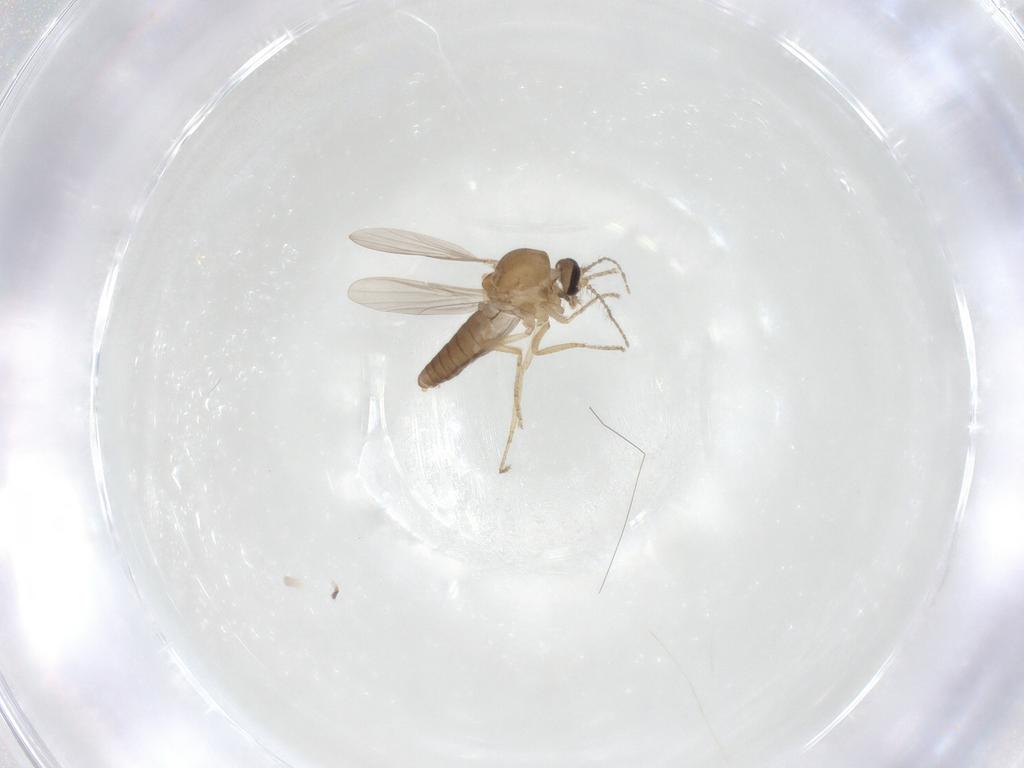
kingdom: Animalia
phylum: Arthropoda
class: Insecta
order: Diptera
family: Ceratopogonidae
